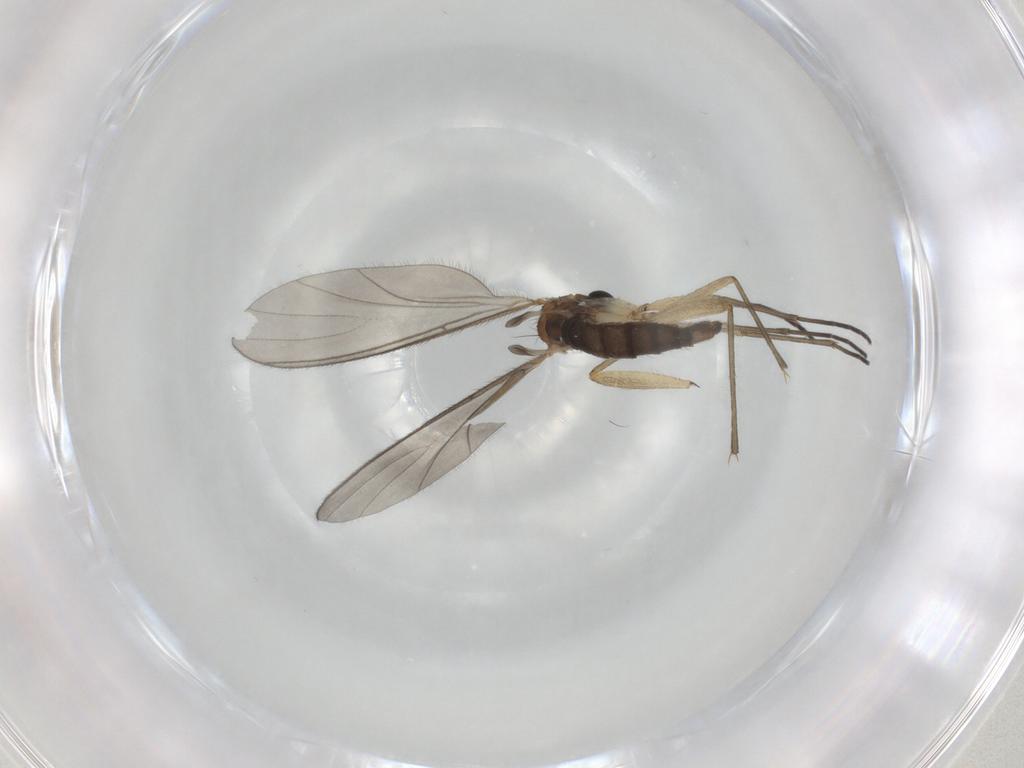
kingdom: Animalia
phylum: Arthropoda
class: Insecta
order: Diptera
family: Sciaridae
